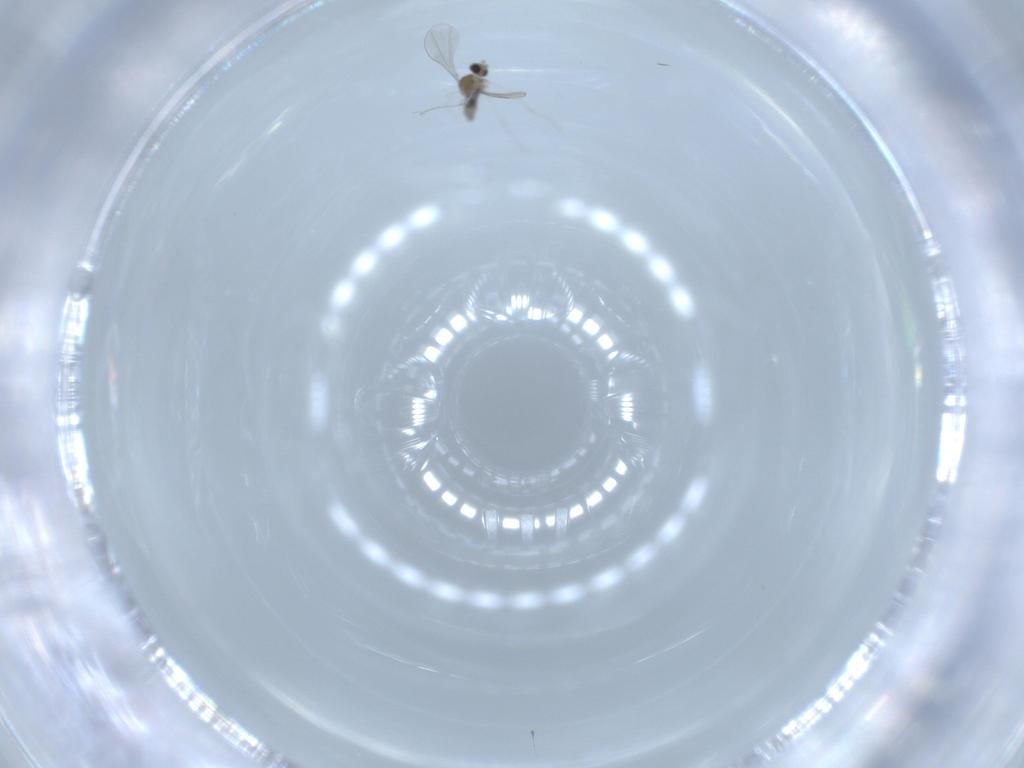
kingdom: Animalia
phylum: Arthropoda
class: Insecta
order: Diptera
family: Cecidomyiidae
